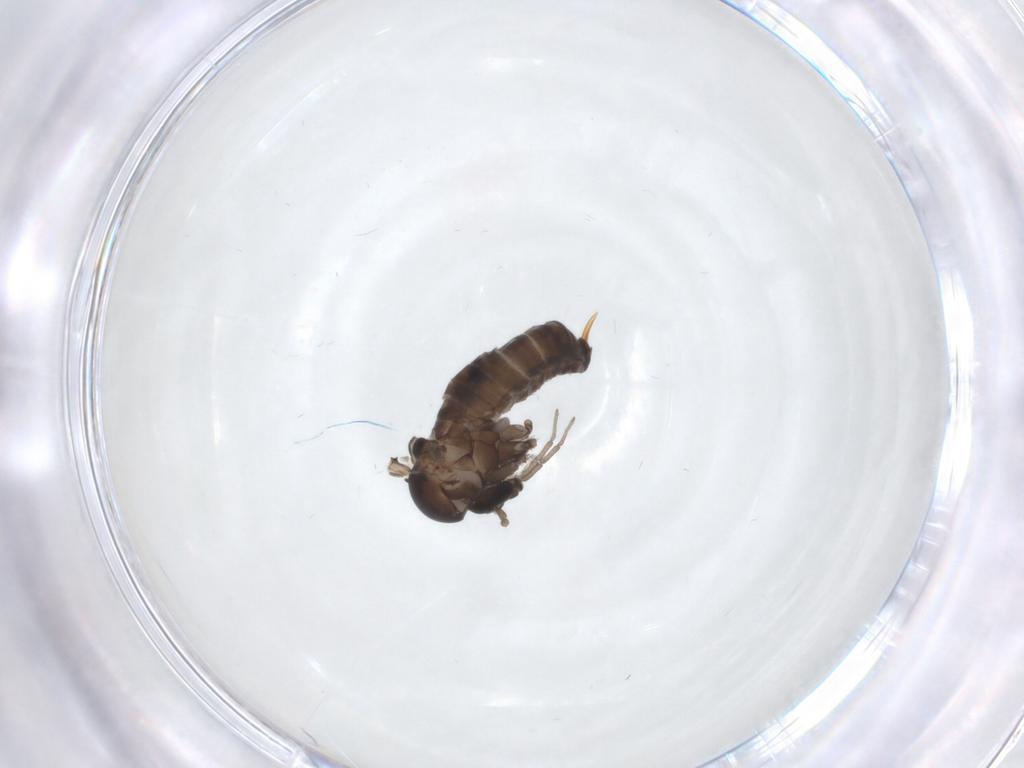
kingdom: Animalia
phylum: Arthropoda
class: Insecta
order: Diptera
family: Psychodidae
